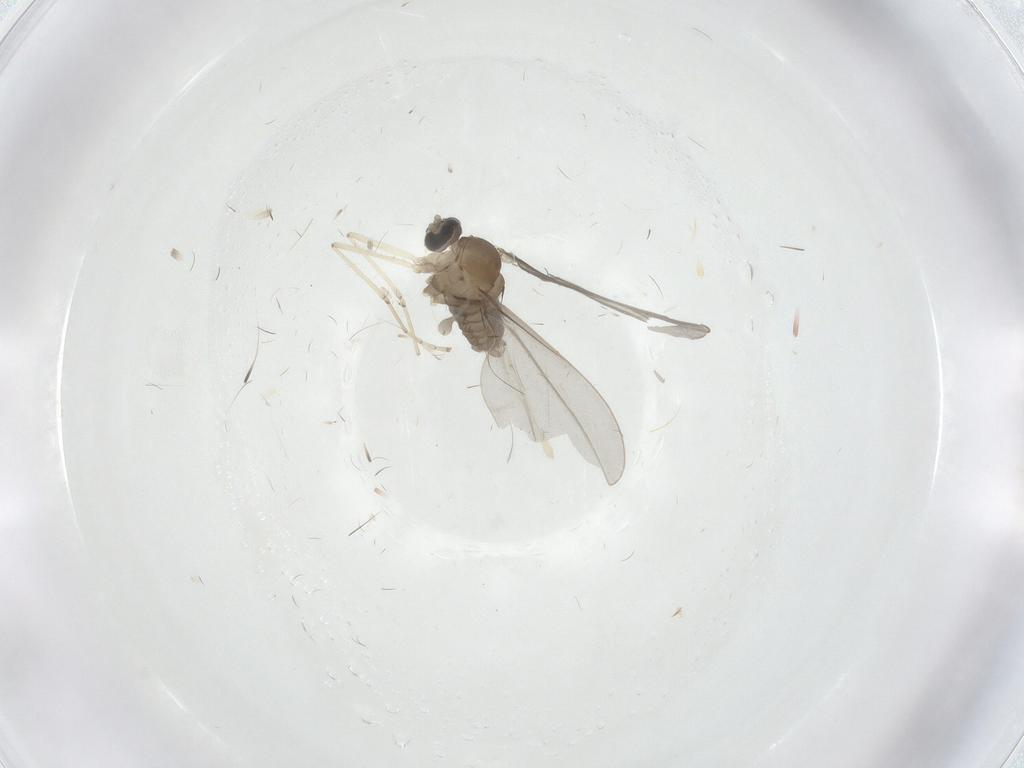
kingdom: Animalia
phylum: Arthropoda
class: Insecta
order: Diptera
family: Cecidomyiidae
